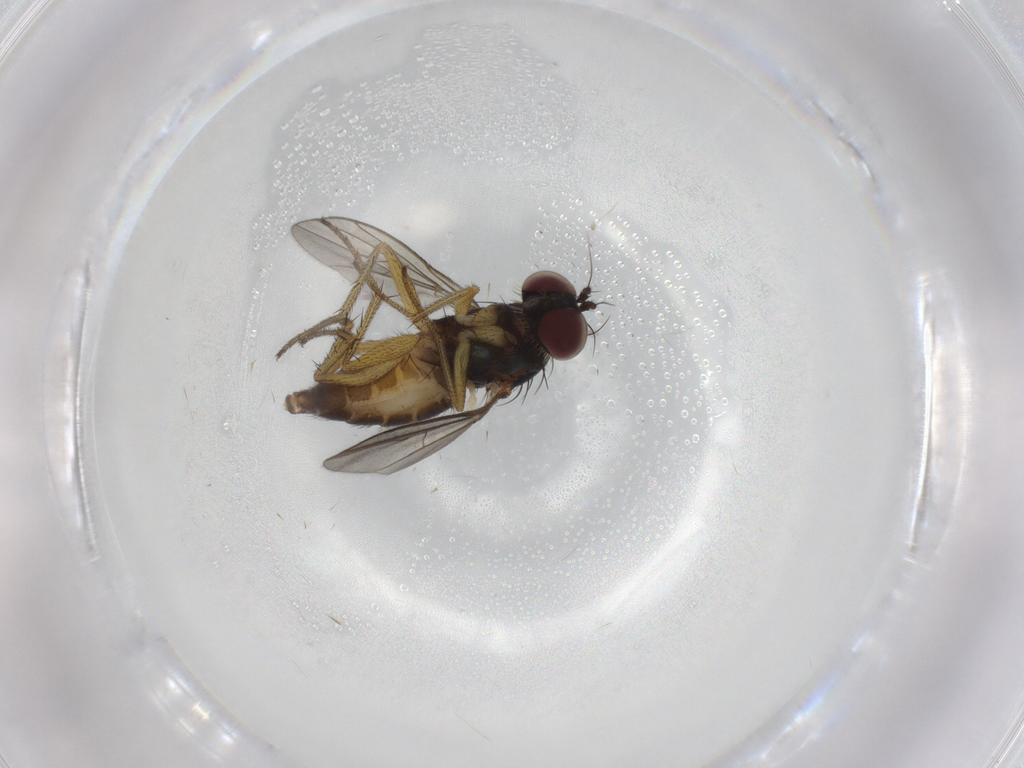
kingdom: Animalia
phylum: Arthropoda
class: Insecta
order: Diptera
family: Dolichopodidae
